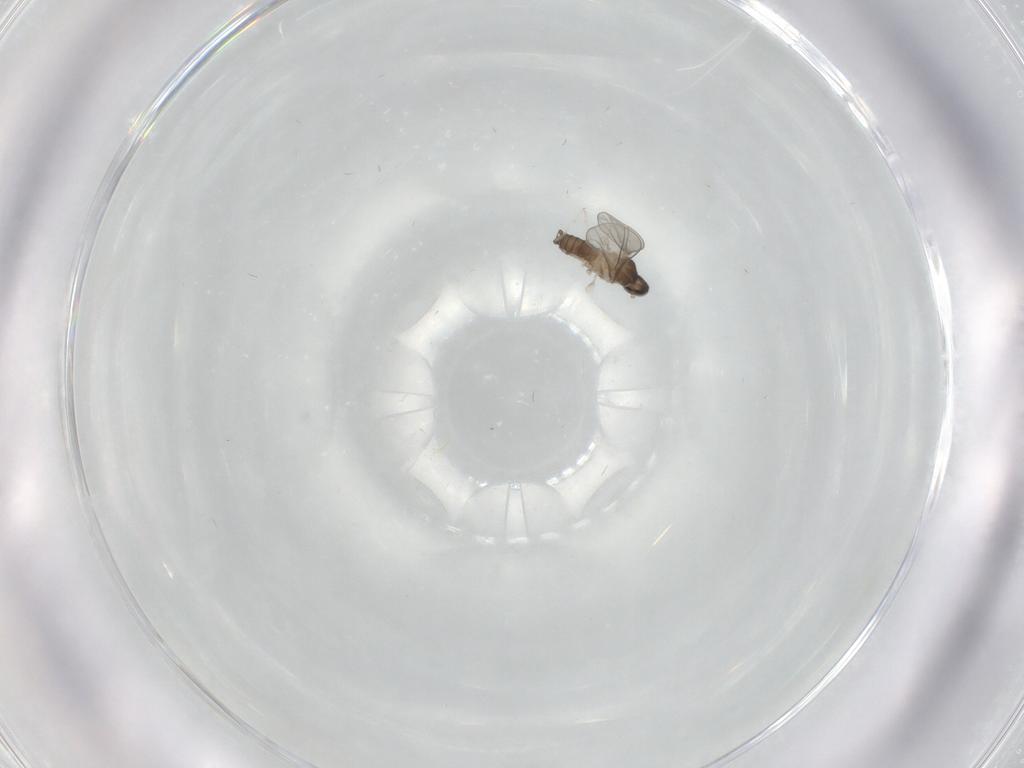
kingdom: Animalia
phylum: Arthropoda
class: Insecta
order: Diptera
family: Cecidomyiidae
